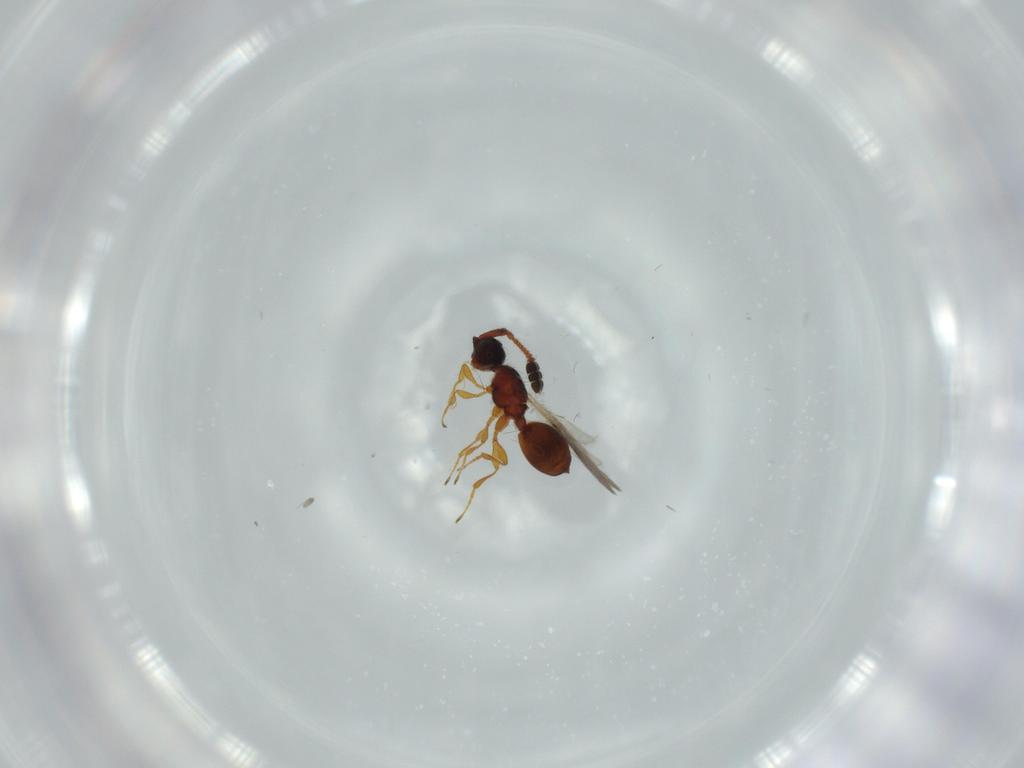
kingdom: Animalia
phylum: Arthropoda
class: Insecta
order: Hymenoptera
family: Diapriidae
